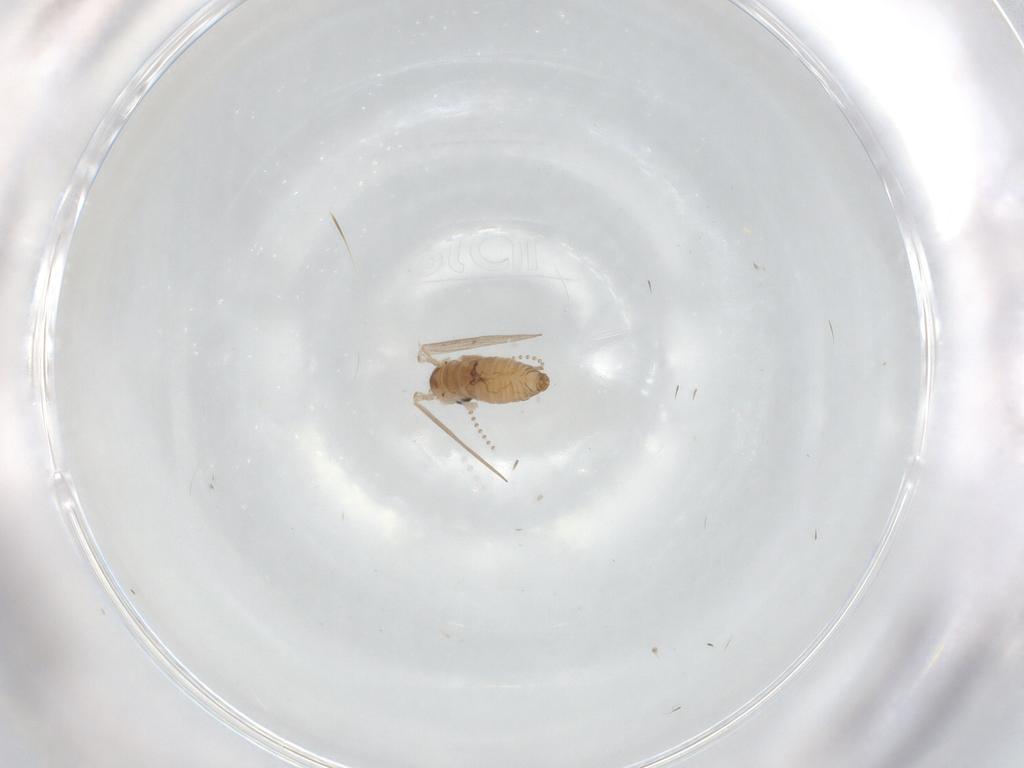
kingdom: Animalia
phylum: Arthropoda
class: Insecta
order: Diptera
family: Psychodidae
